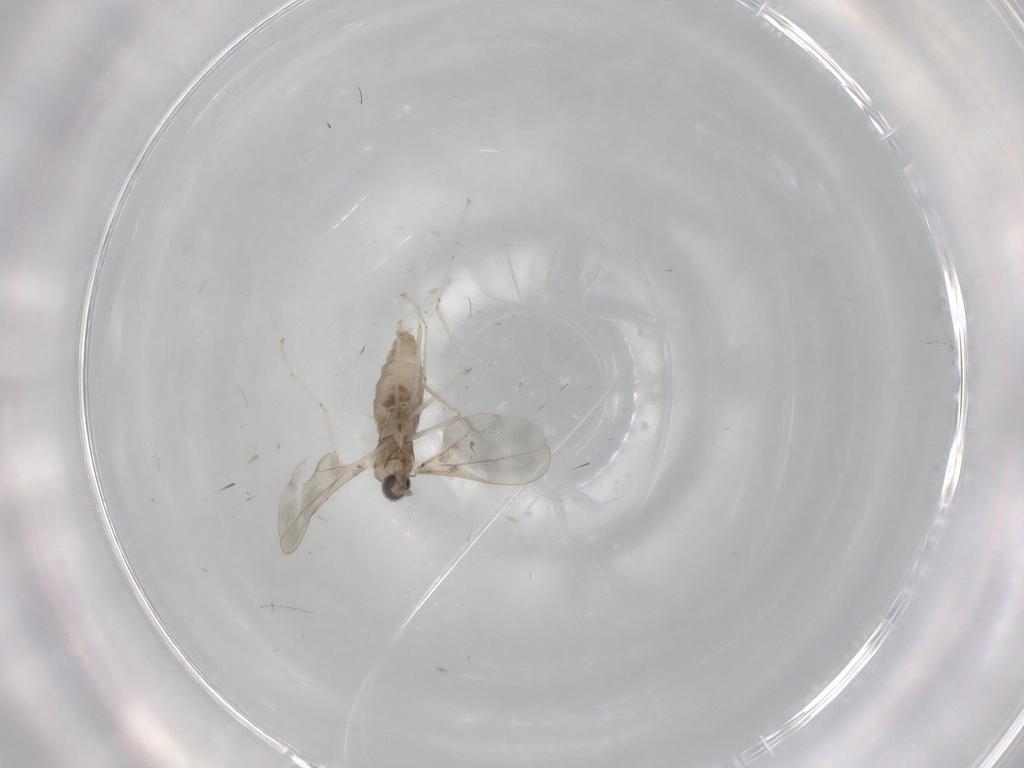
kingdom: Animalia
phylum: Arthropoda
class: Insecta
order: Diptera
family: Cecidomyiidae
